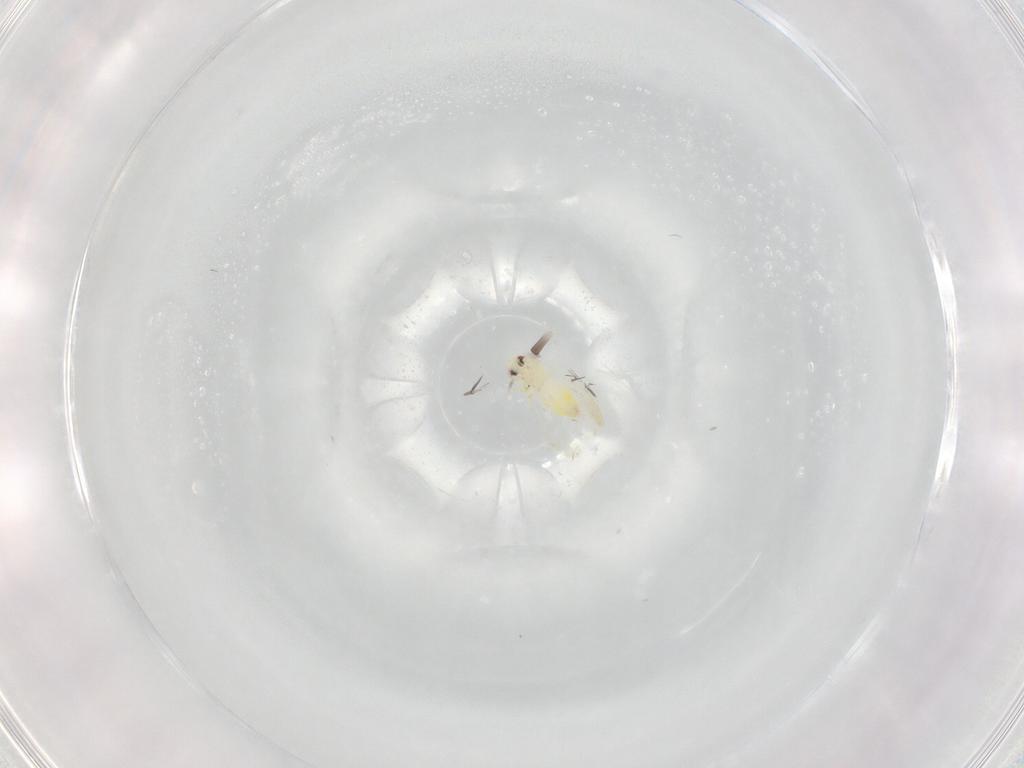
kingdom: Animalia
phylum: Arthropoda
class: Insecta
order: Hemiptera
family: Aleyrodidae
